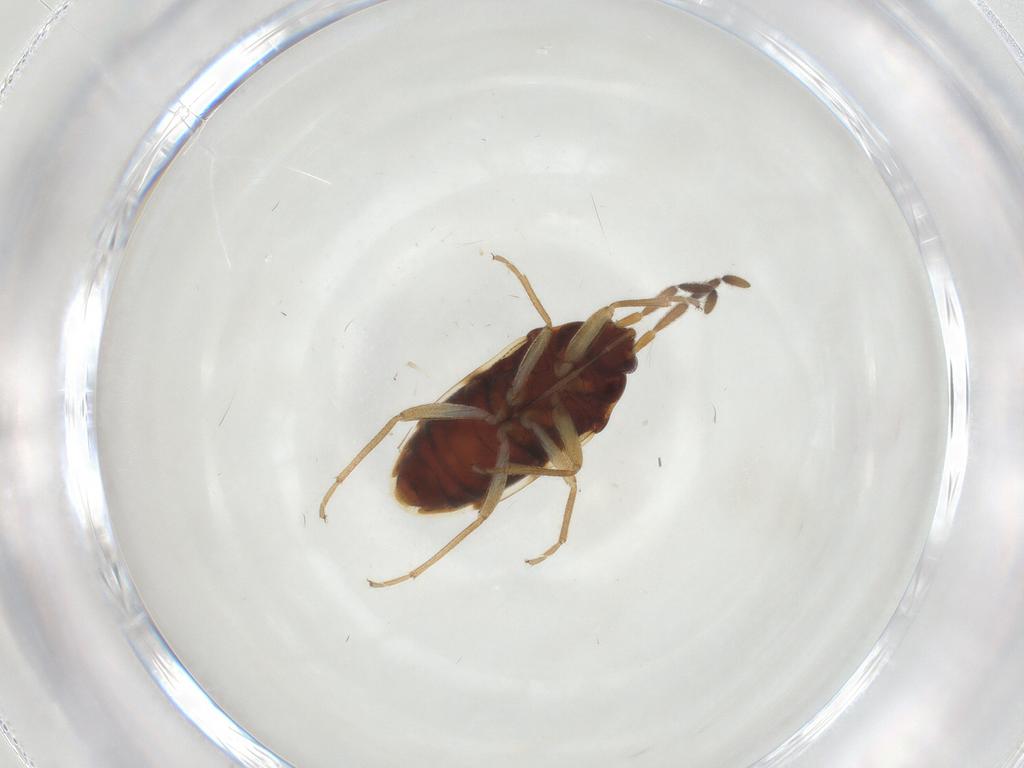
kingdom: Animalia
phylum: Arthropoda
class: Insecta
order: Hemiptera
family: Rhyparochromidae
